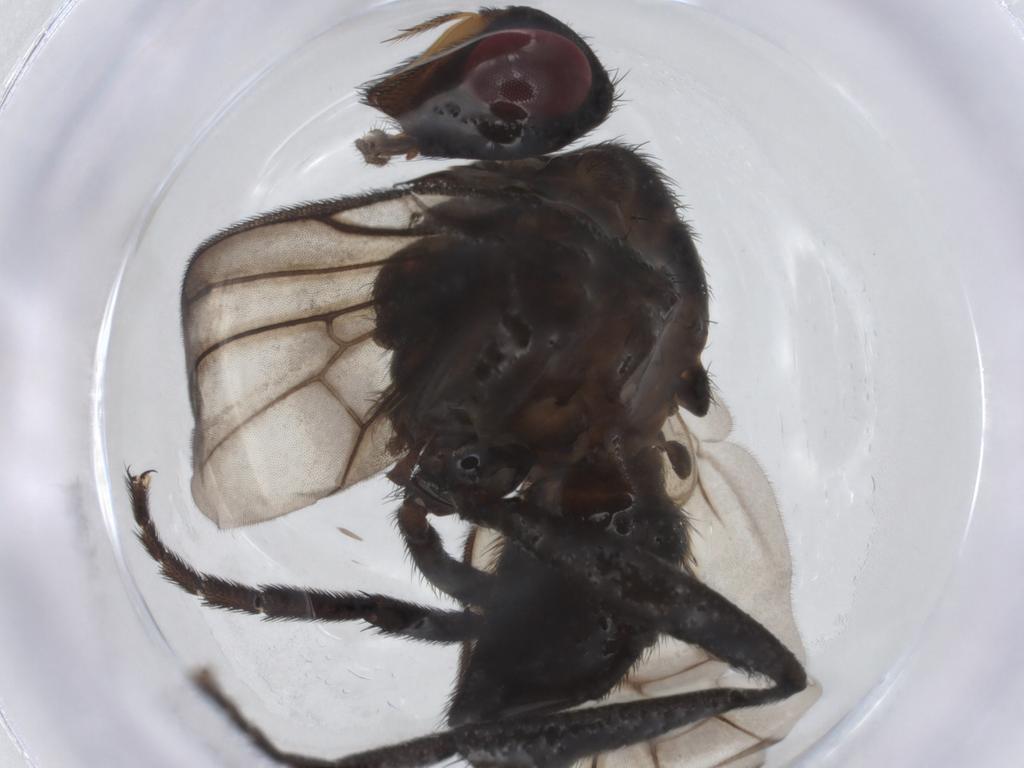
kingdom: Animalia
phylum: Arthropoda
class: Insecta
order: Diptera
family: Calliphoridae
